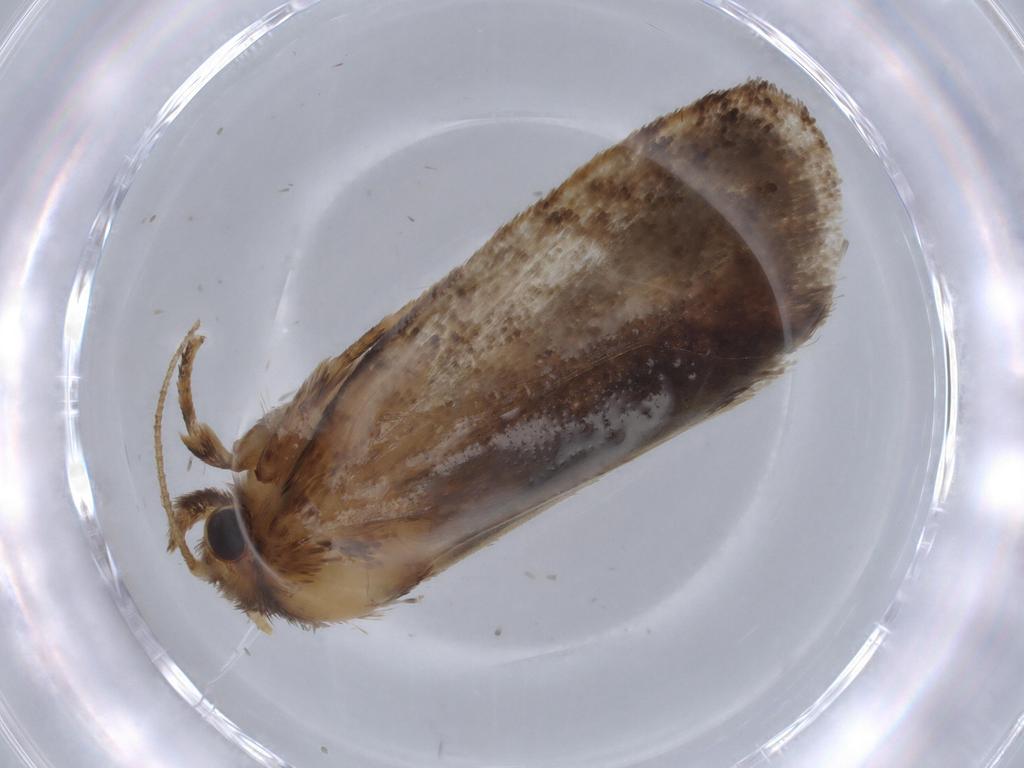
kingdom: Animalia
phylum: Arthropoda
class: Insecta
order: Lepidoptera
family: Tineidae
